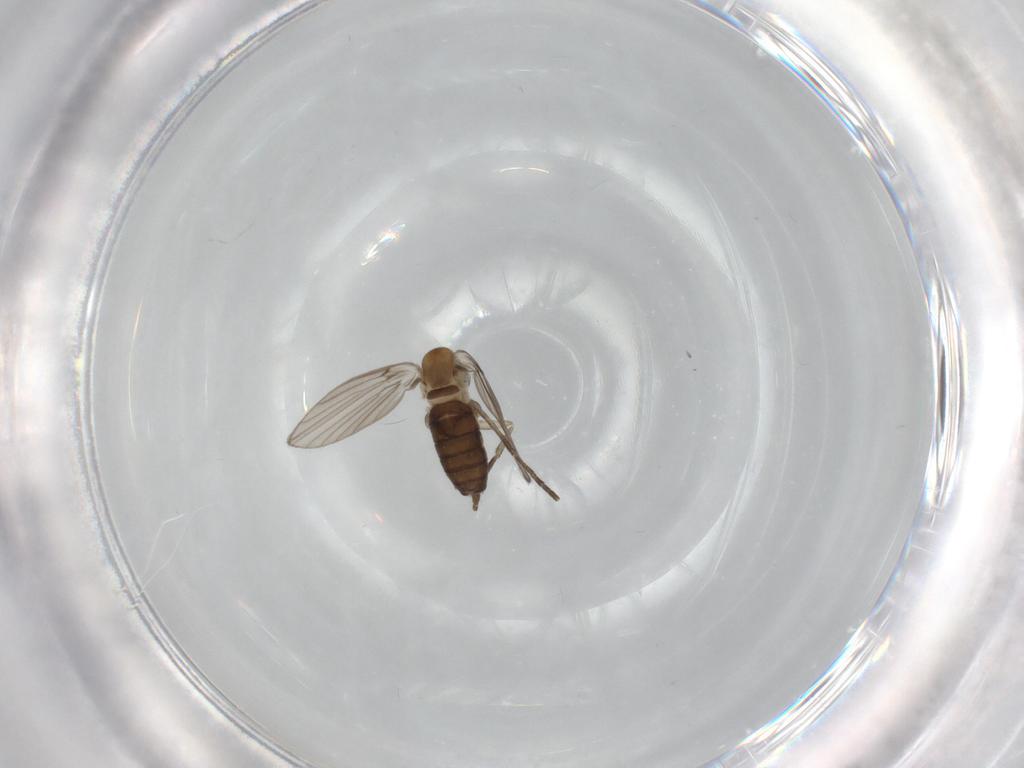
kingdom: Animalia
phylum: Arthropoda
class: Insecta
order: Diptera
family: Psychodidae
